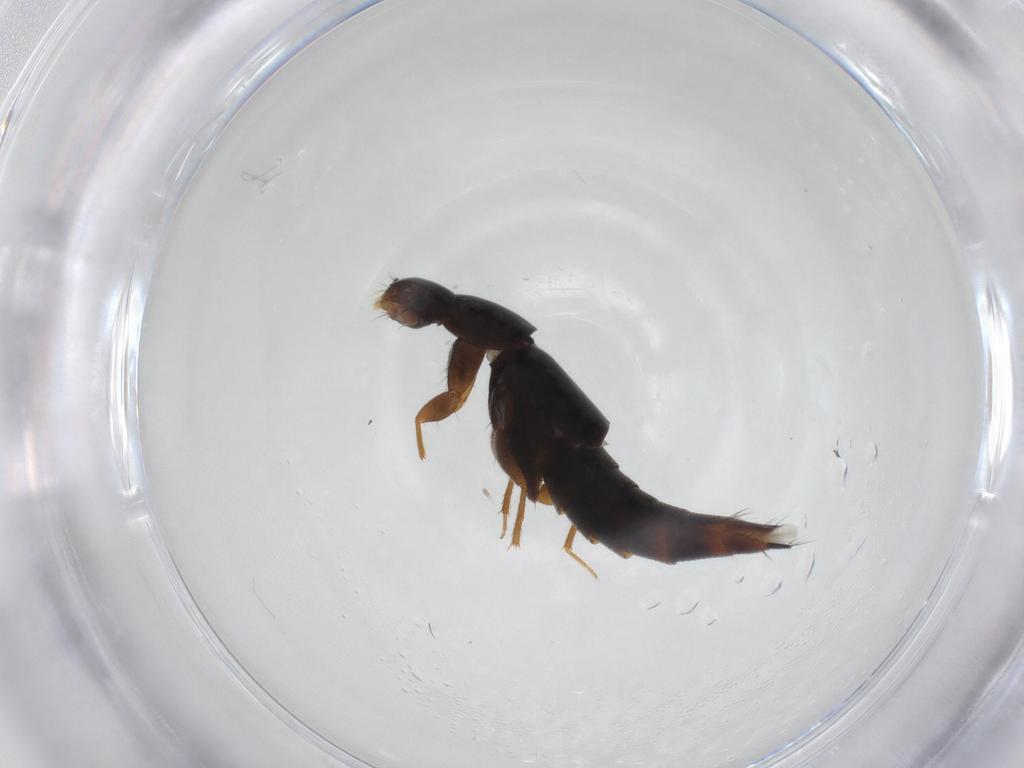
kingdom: Animalia
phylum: Arthropoda
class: Insecta
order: Coleoptera
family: Staphylinidae
